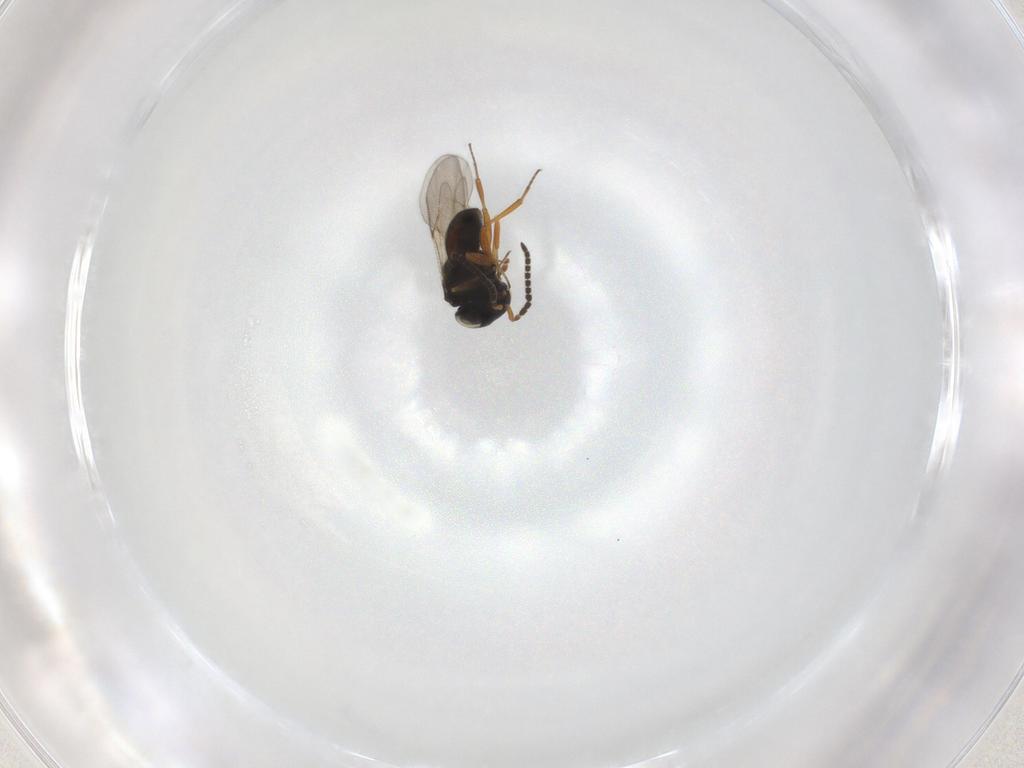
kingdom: Animalia
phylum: Arthropoda
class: Insecta
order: Hymenoptera
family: Scelionidae
